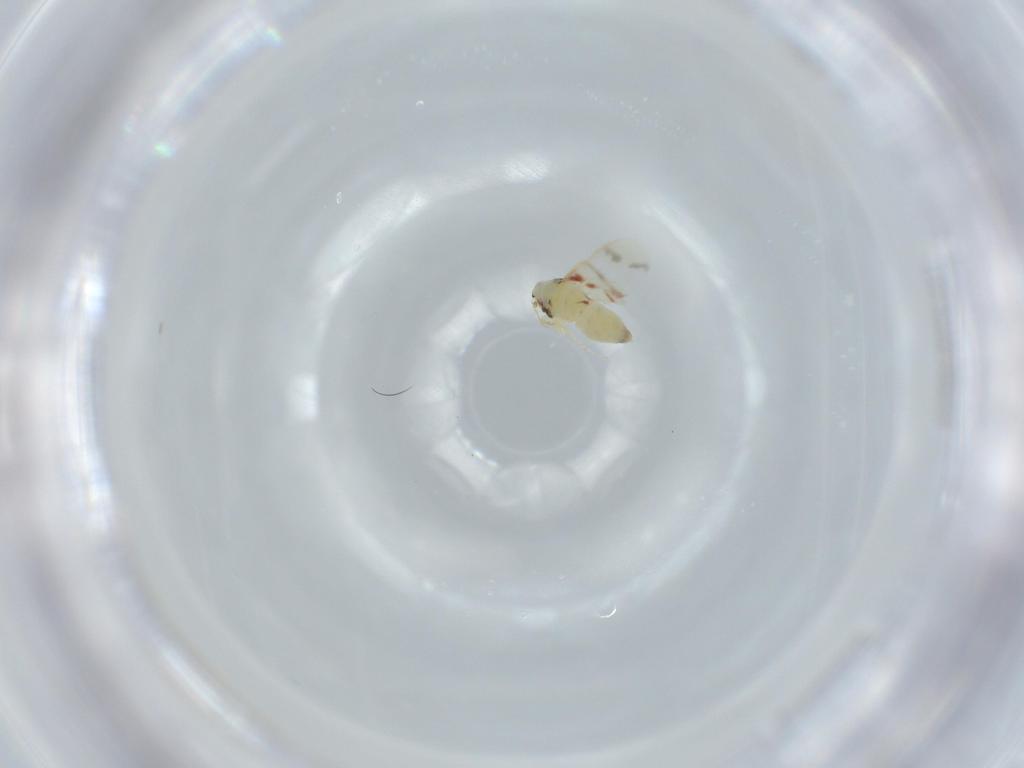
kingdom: Animalia
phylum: Arthropoda
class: Insecta
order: Hemiptera
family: Aleyrodidae
